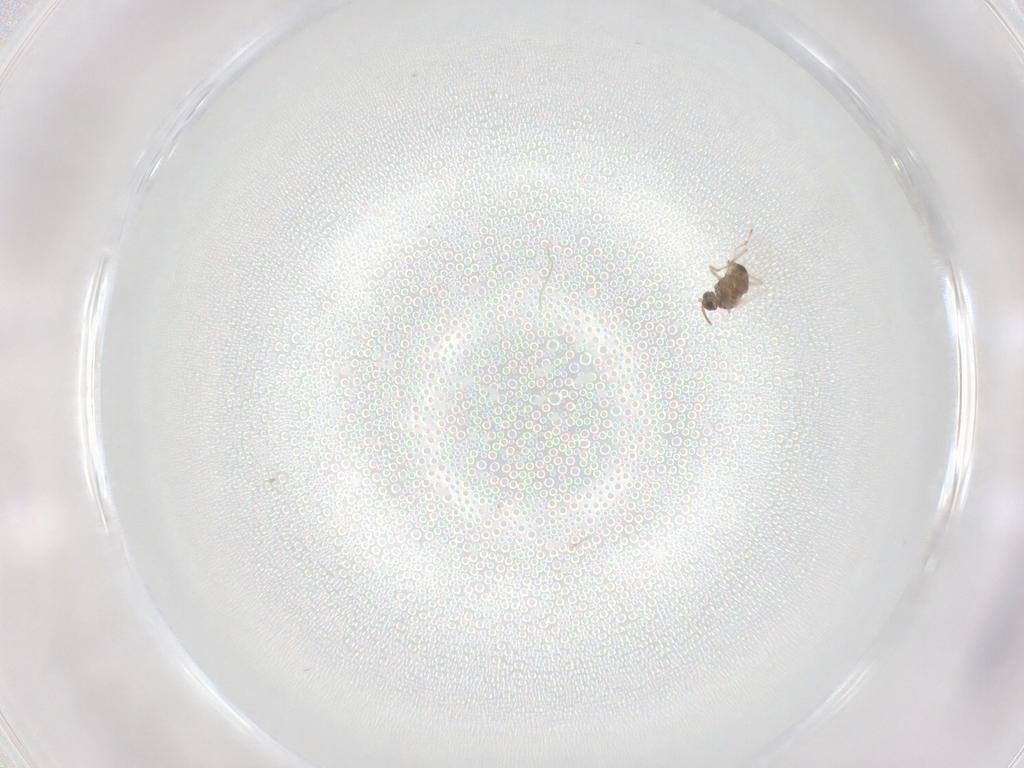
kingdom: Animalia
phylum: Arthropoda
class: Insecta
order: Diptera
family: Cecidomyiidae
